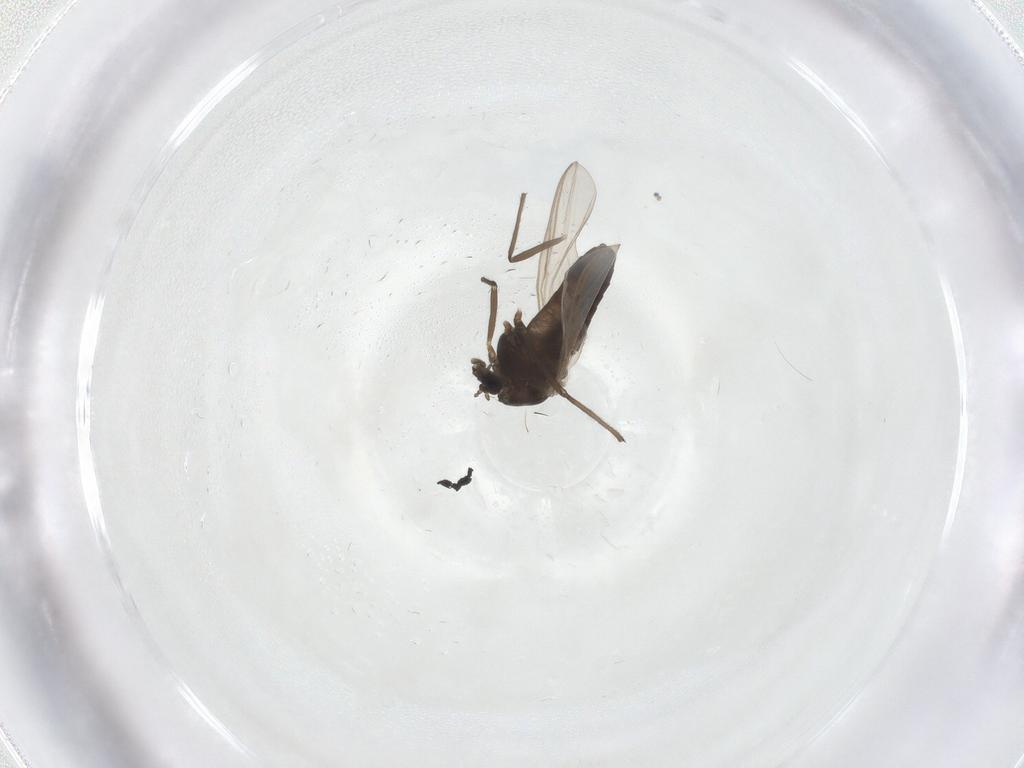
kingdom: Animalia
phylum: Arthropoda
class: Insecta
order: Diptera
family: Chironomidae
